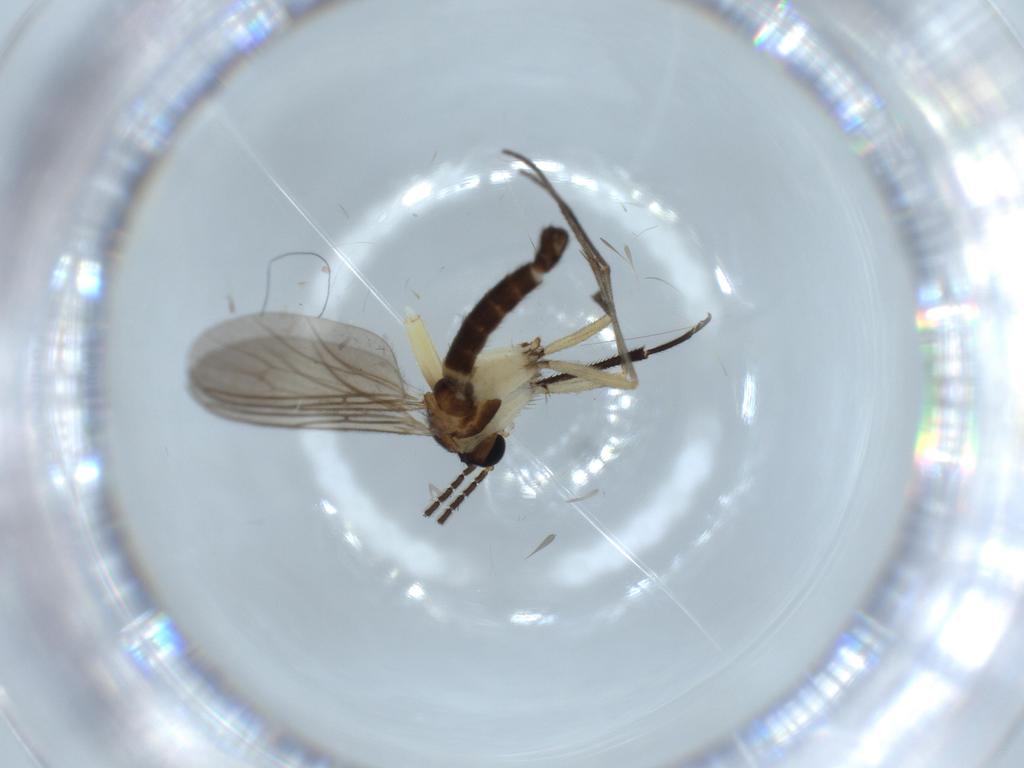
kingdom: Animalia
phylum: Arthropoda
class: Insecta
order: Diptera
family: Sciaridae
